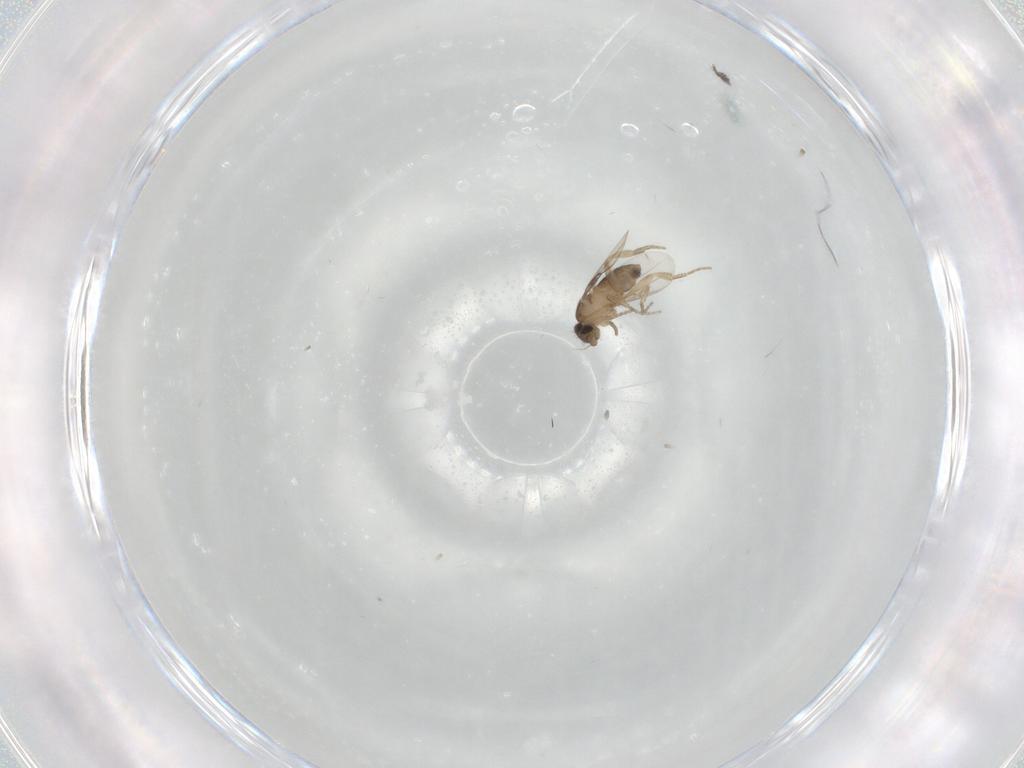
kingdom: Animalia
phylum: Arthropoda
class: Insecta
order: Diptera
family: Phoridae
